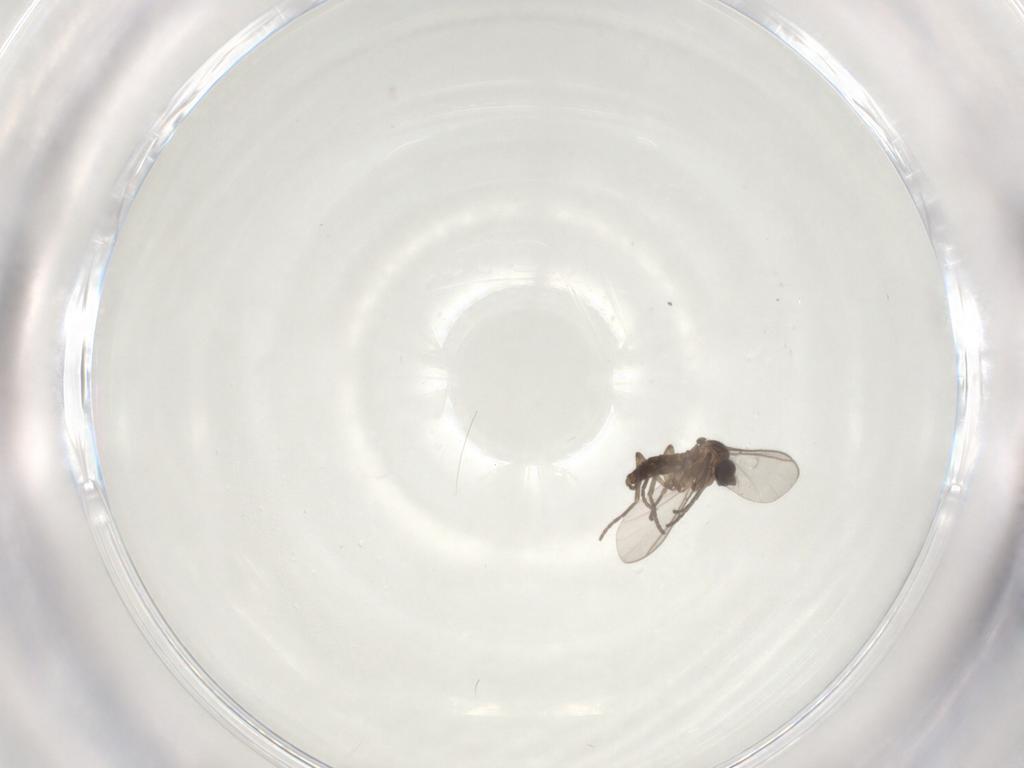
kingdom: Animalia
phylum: Arthropoda
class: Insecta
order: Diptera
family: Sciaridae
